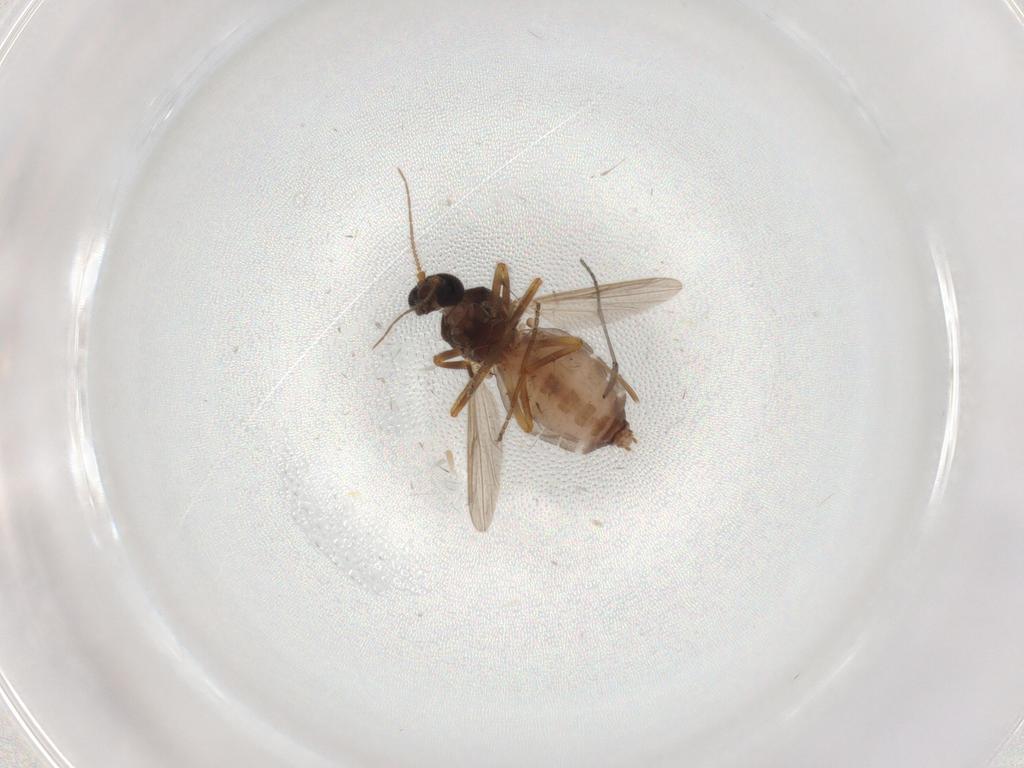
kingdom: Animalia
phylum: Arthropoda
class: Insecta
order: Diptera
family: Ceratopogonidae
